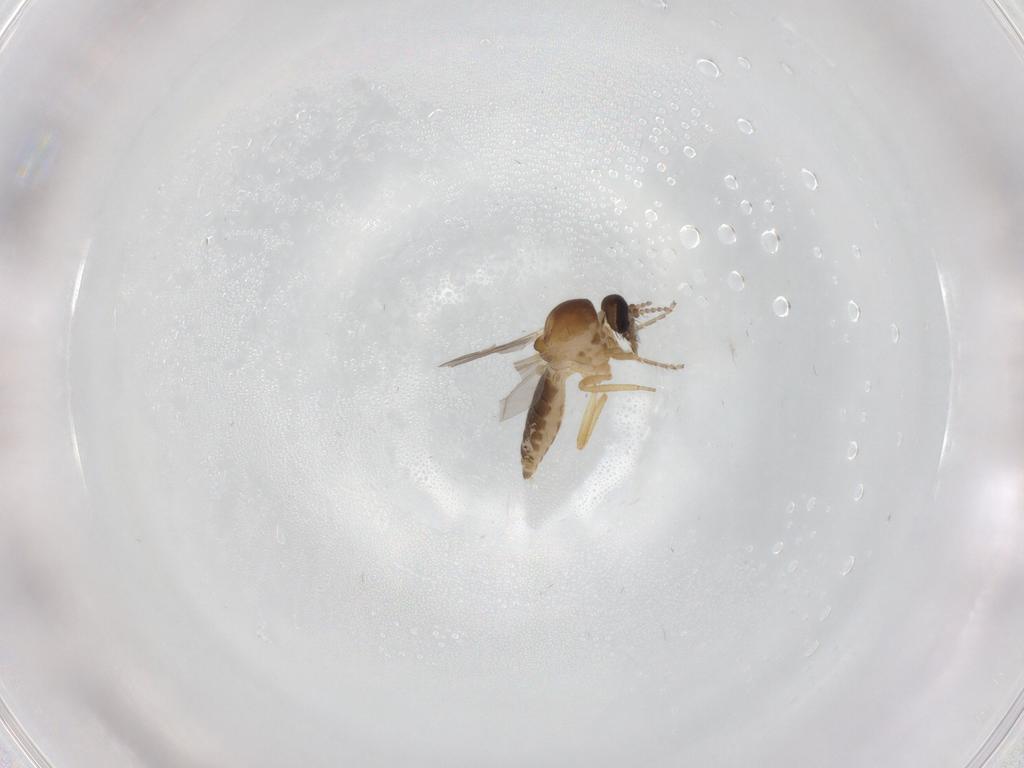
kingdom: Animalia
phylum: Arthropoda
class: Insecta
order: Diptera
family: Ceratopogonidae
